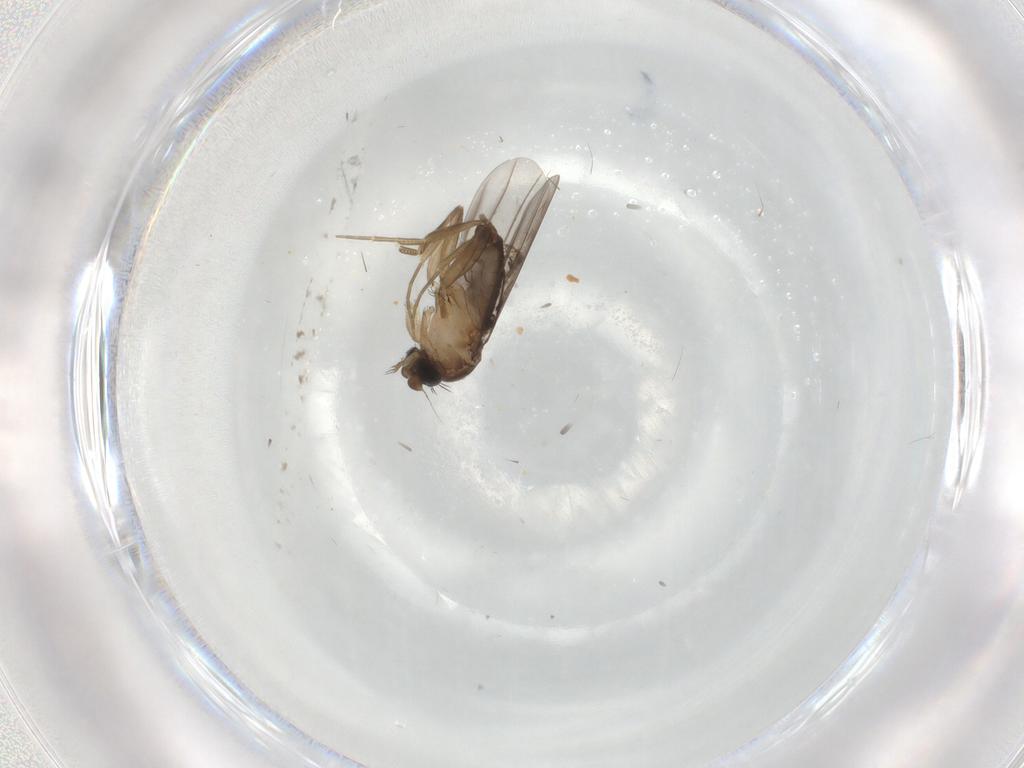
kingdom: Animalia
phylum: Arthropoda
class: Insecta
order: Diptera
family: Phoridae
